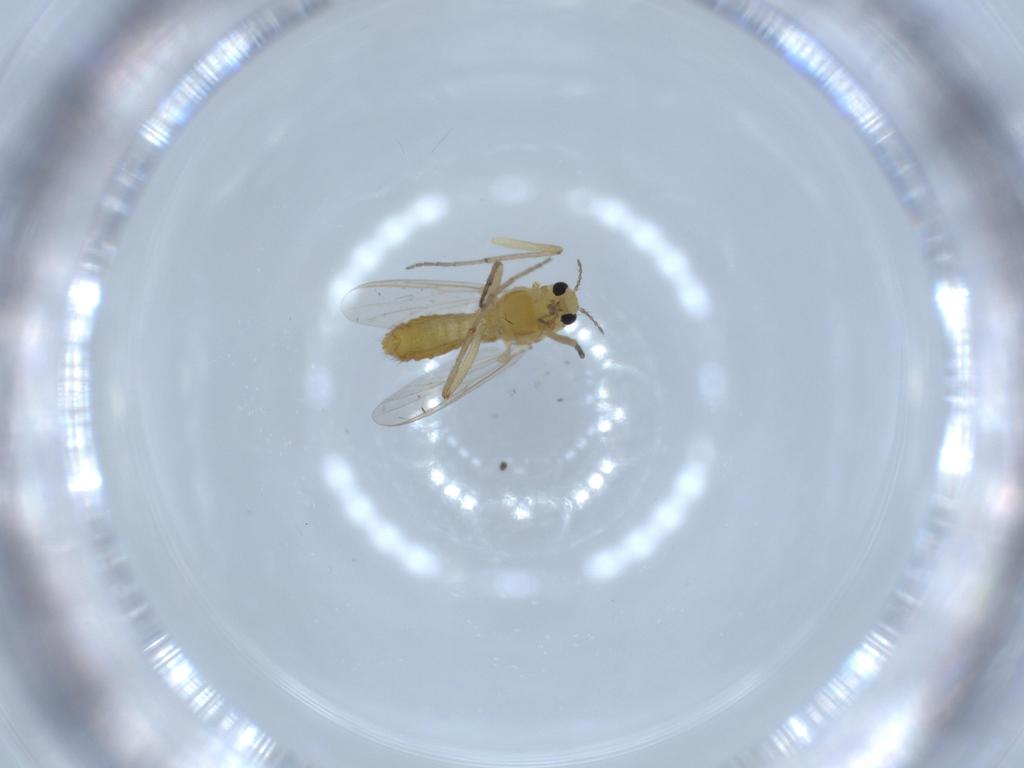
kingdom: Animalia
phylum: Arthropoda
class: Insecta
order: Diptera
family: Chironomidae
